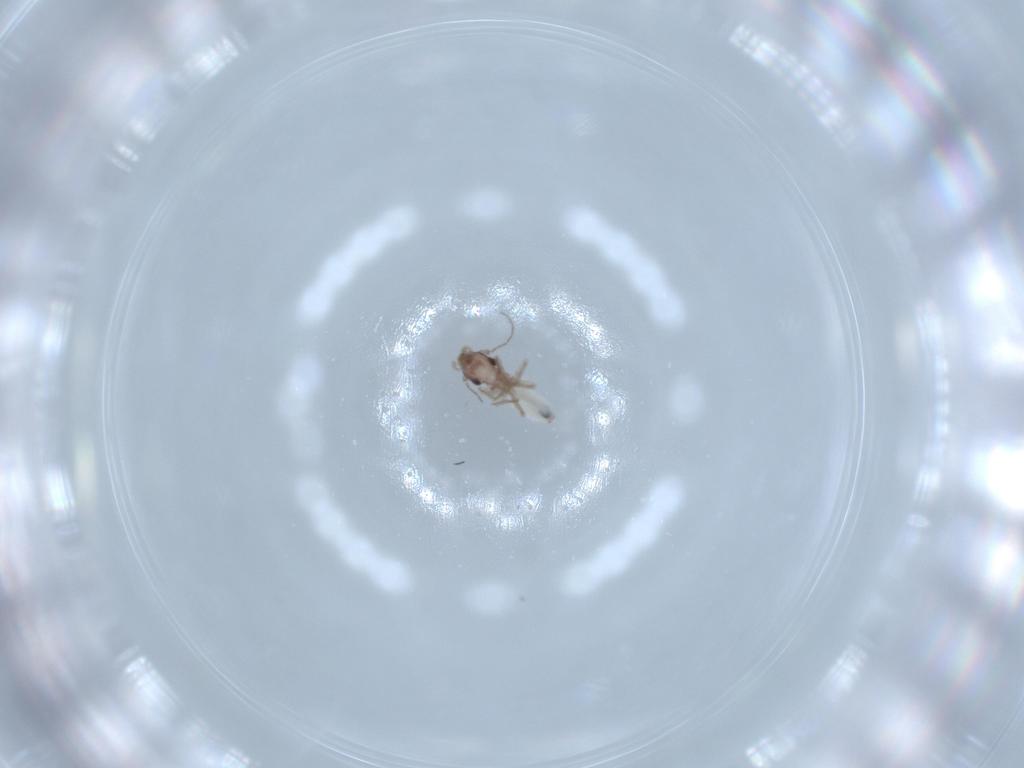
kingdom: Animalia
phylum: Arthropoda
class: Insecta
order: Psocodea
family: Lepidopsocidae
